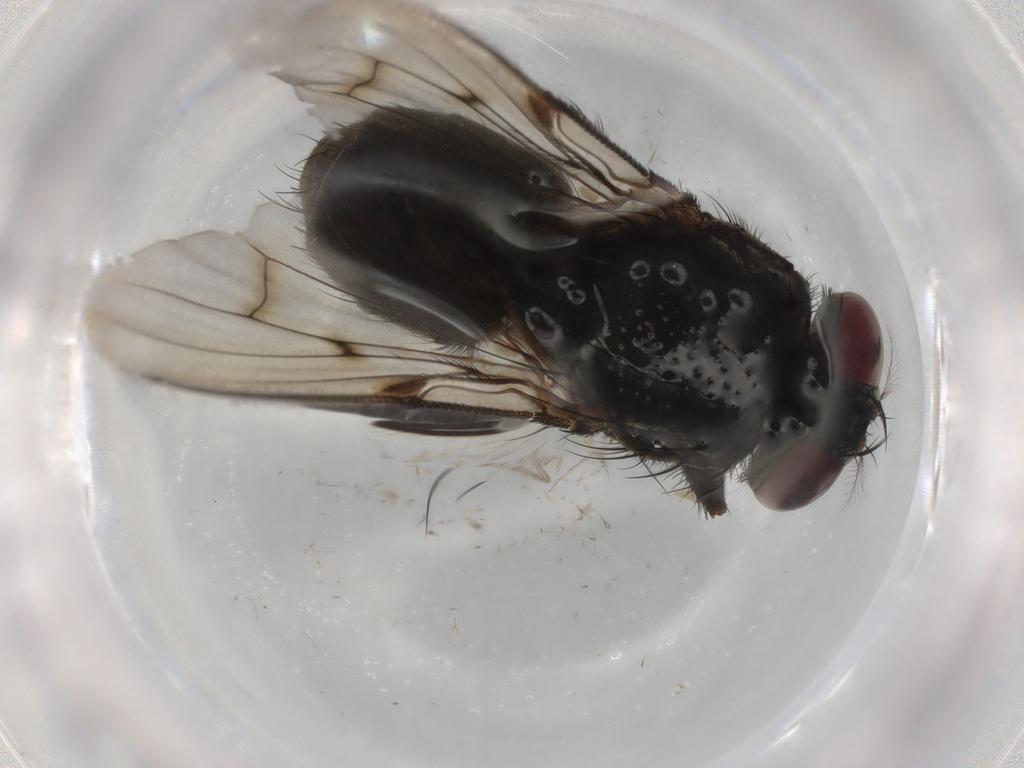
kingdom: Animalia
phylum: Arthropoda
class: Insecta
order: Diptera
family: Muscidae
